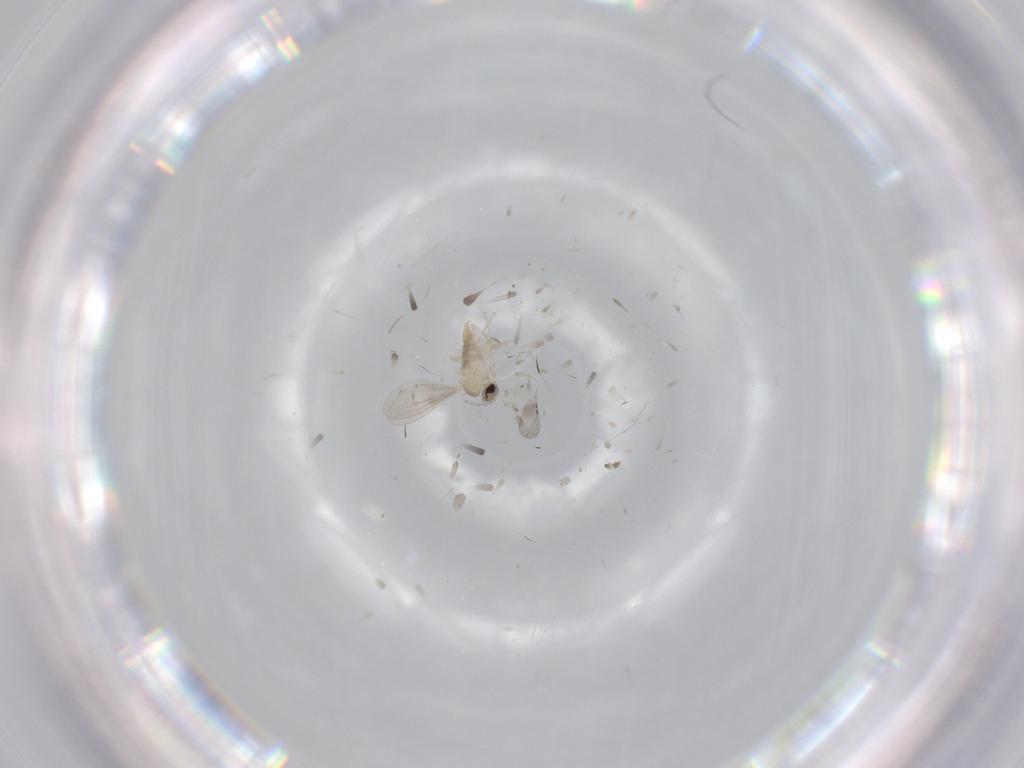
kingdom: Animalia
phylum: Arthropoda
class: Insecta
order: Diptera
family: Cecidomyiidae
